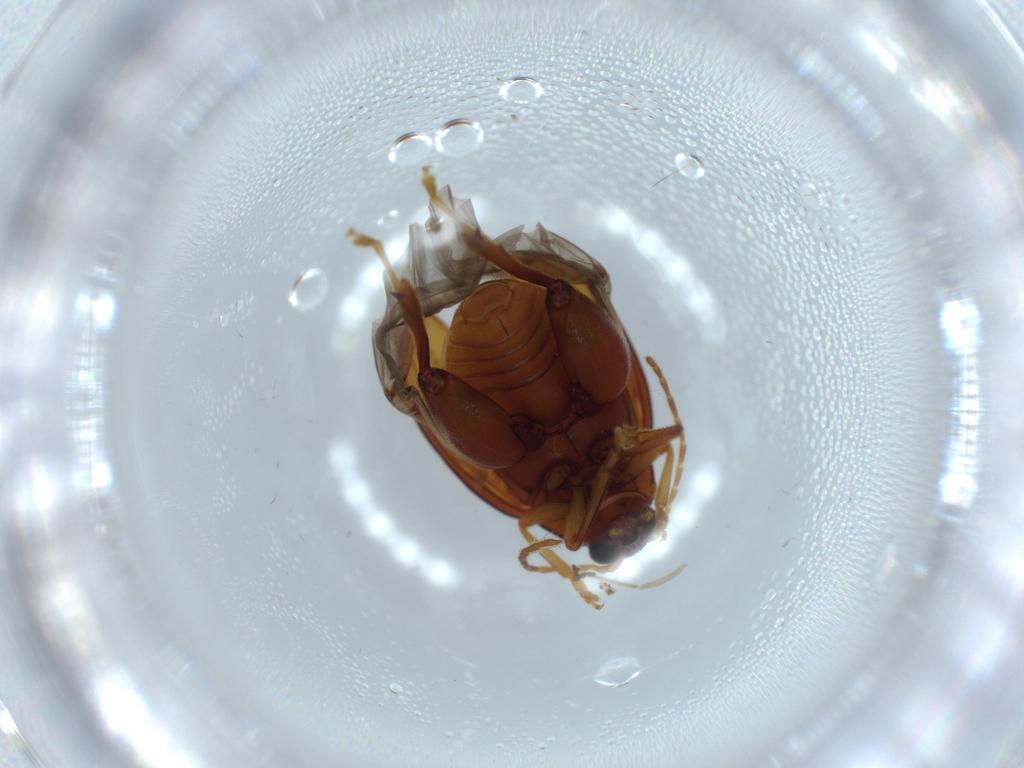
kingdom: Animalia
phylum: Arthropoda
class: Insecta
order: Coleoptera
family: Chrysomelidae
